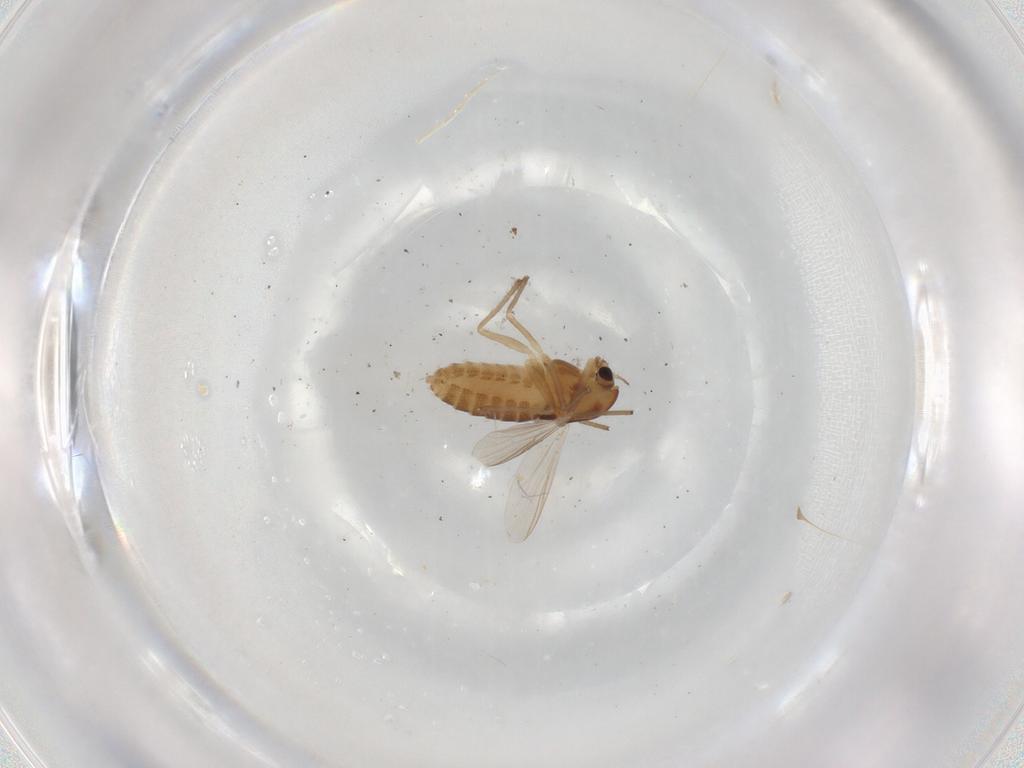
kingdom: Animalia
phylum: Arthropoda
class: Insecta
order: Diptera
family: Chironomidae
